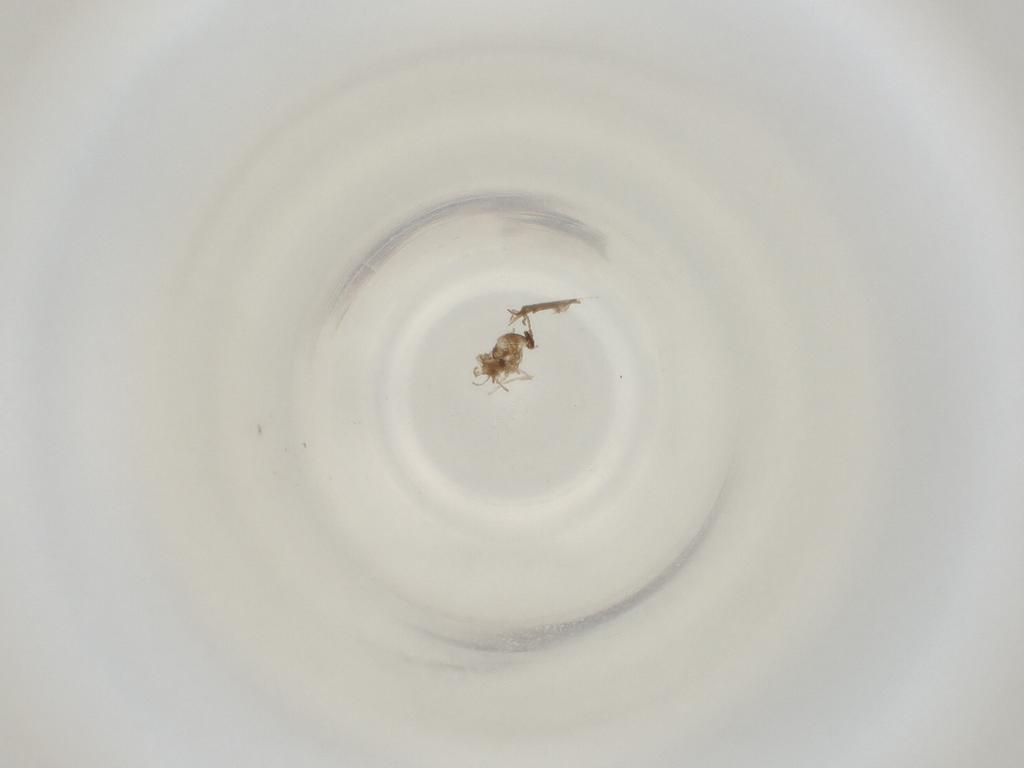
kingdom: Animalia
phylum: Arthropoda
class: Insecta
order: Diptera
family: Cecidomyiidae
